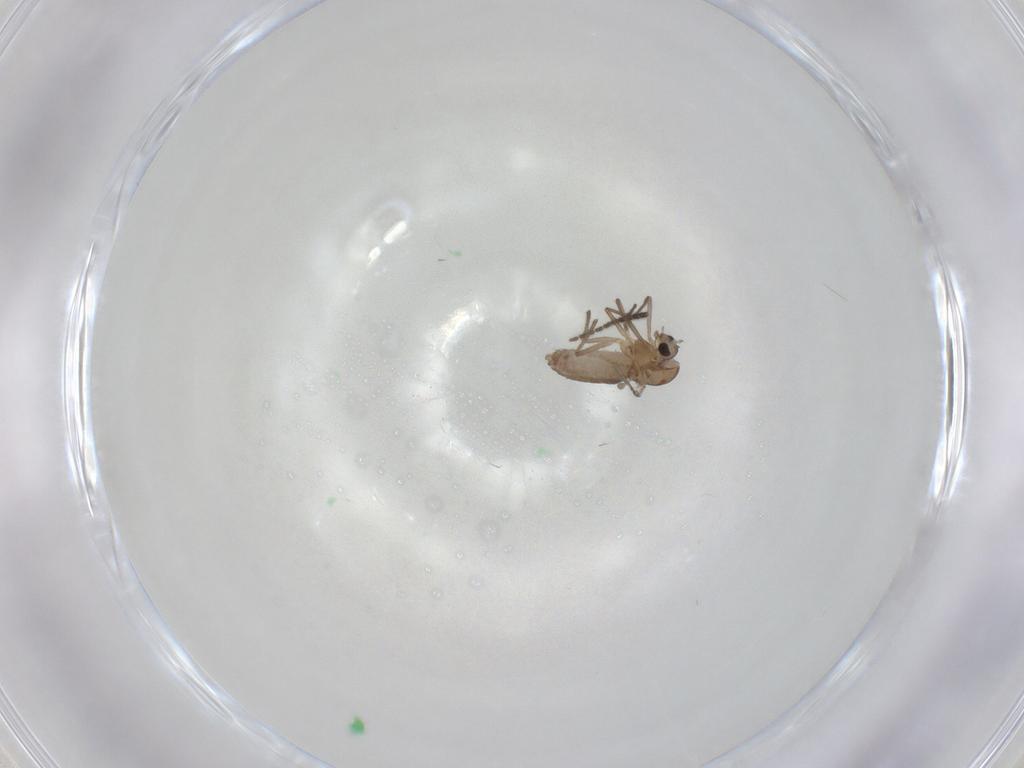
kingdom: Animalia
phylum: Arthropoda
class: Insecta
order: Diptera
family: Chironomidae
